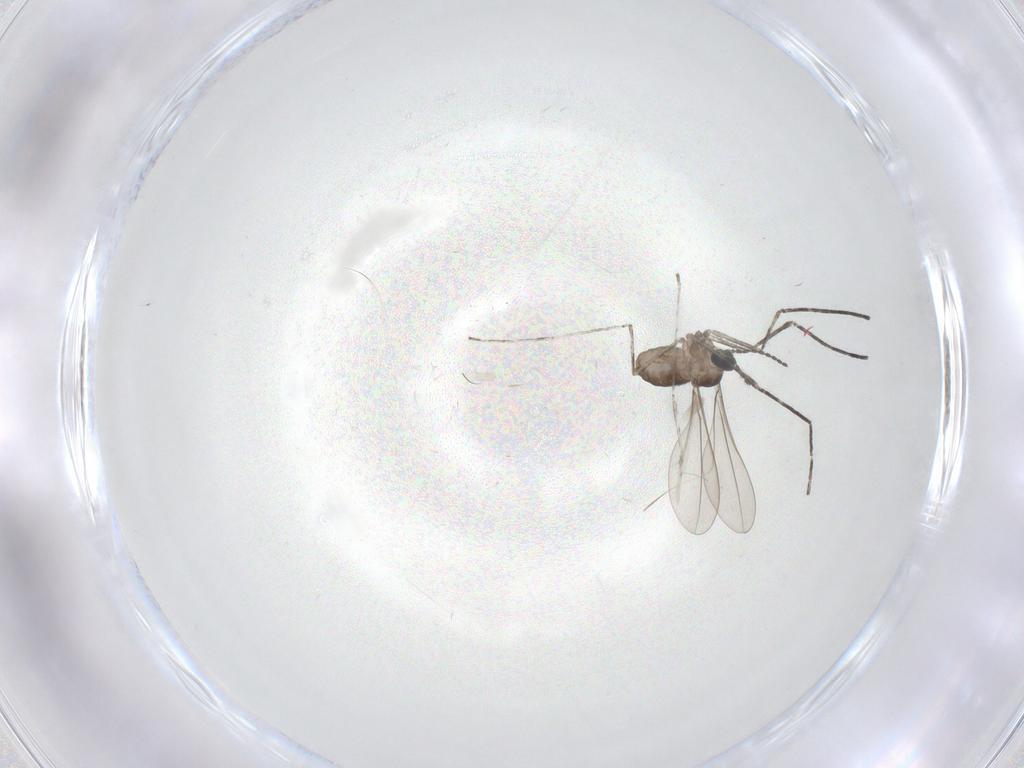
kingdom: Animalia
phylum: Arthropoda
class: Insecta
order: Diptera
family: Cecidomyiidae
